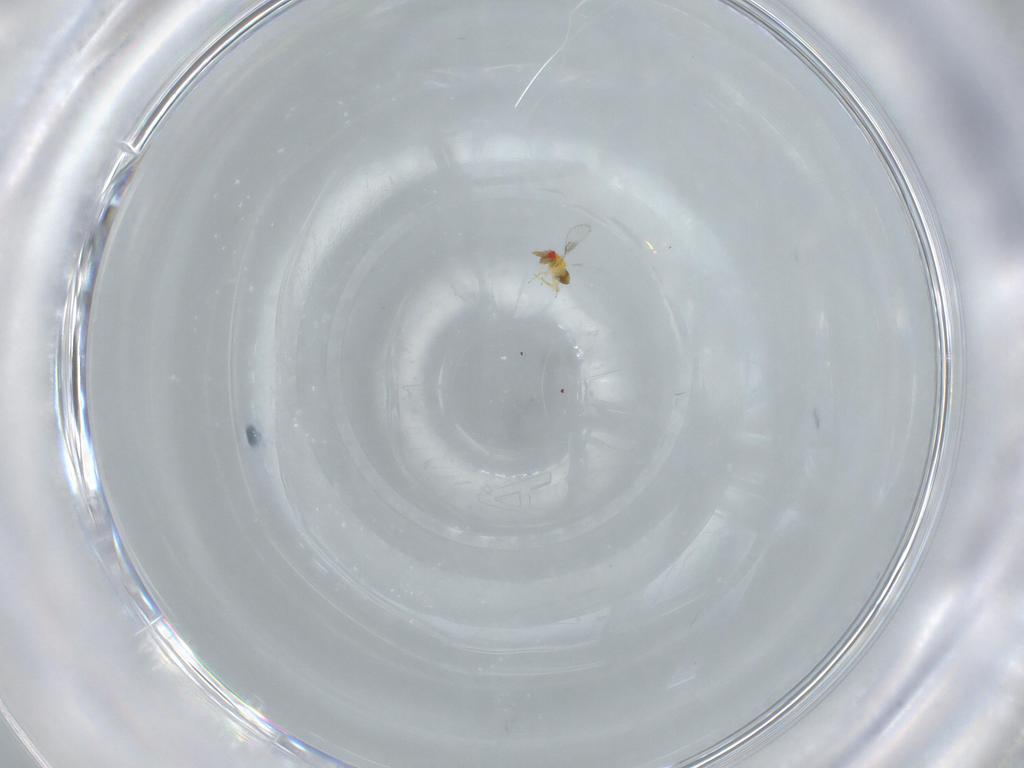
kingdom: Animalia
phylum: Arthropoda
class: Insecta
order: Hymenoptera
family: Trichogrammatidae
